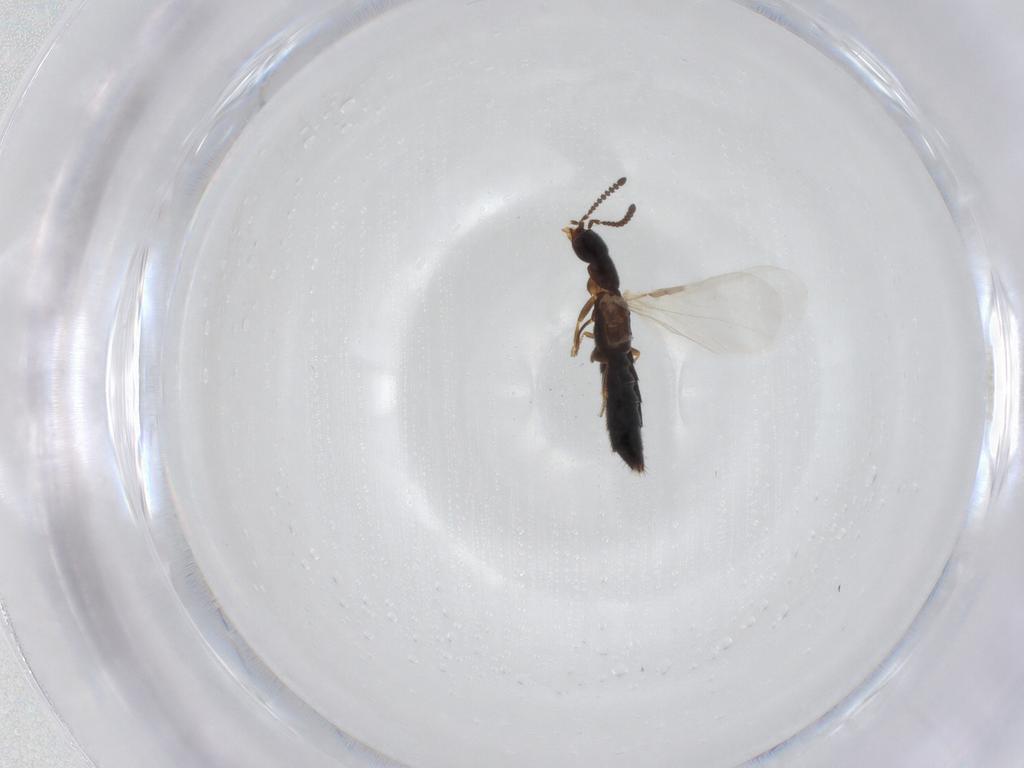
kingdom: Animalia
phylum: Arthropoda
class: Insecta
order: Coleoptera
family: Staphylinidae
